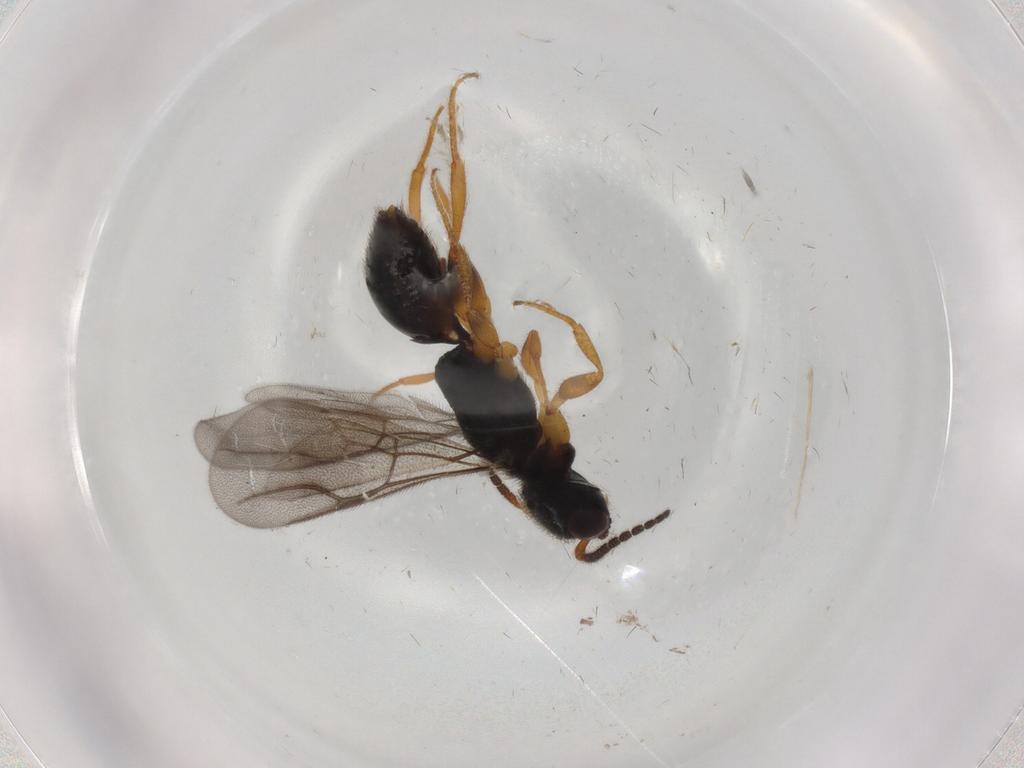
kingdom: Animalia
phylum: Arthropoda
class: Insecta
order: Hymenoptera
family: Bethylidae
